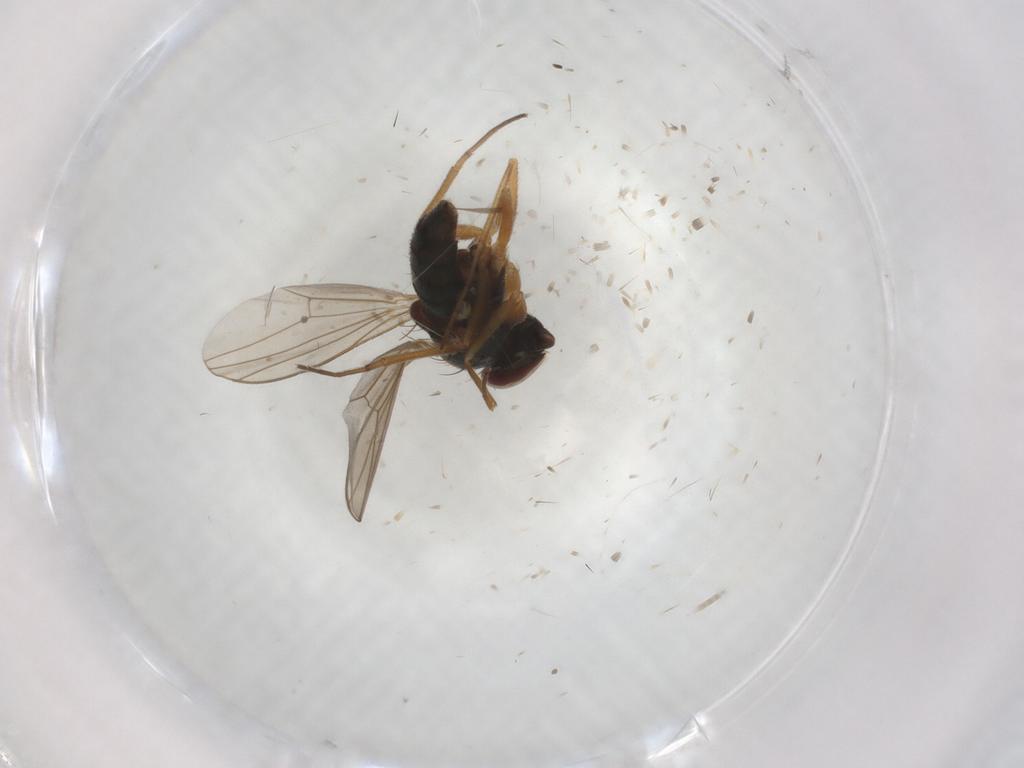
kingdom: Animalia
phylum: Arthropoda
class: Insecta
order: Diptera
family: Dolichopodidae
